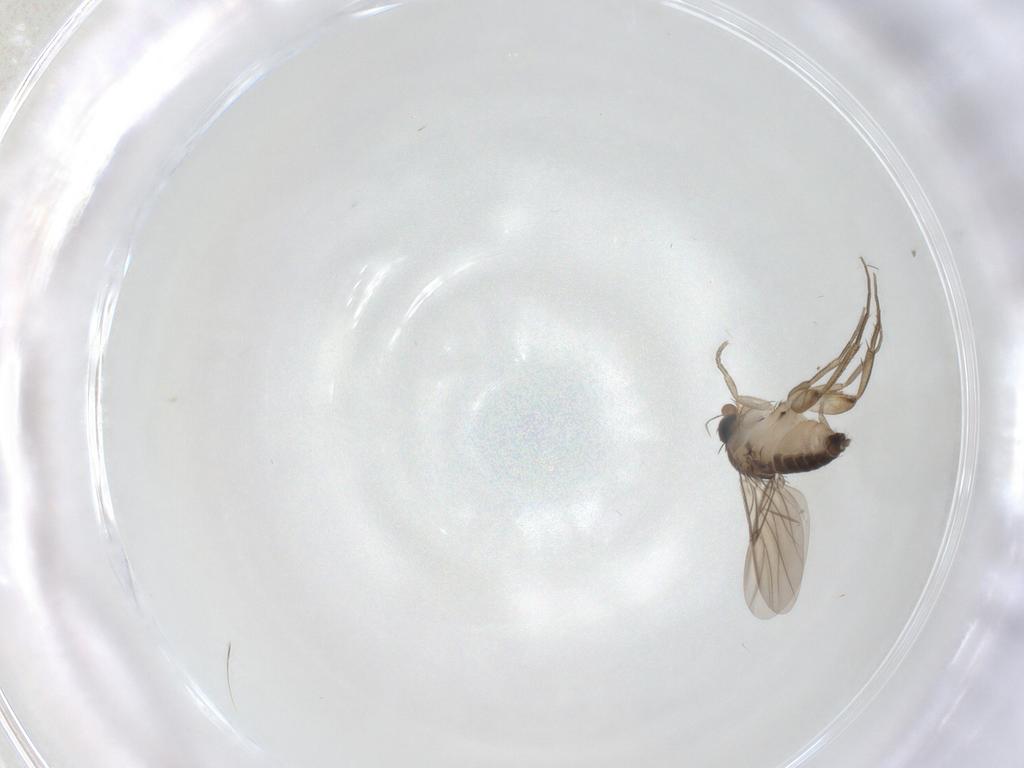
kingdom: Animalia
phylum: Arthropoda
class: Insecta
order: Diptera
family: Phoridae
